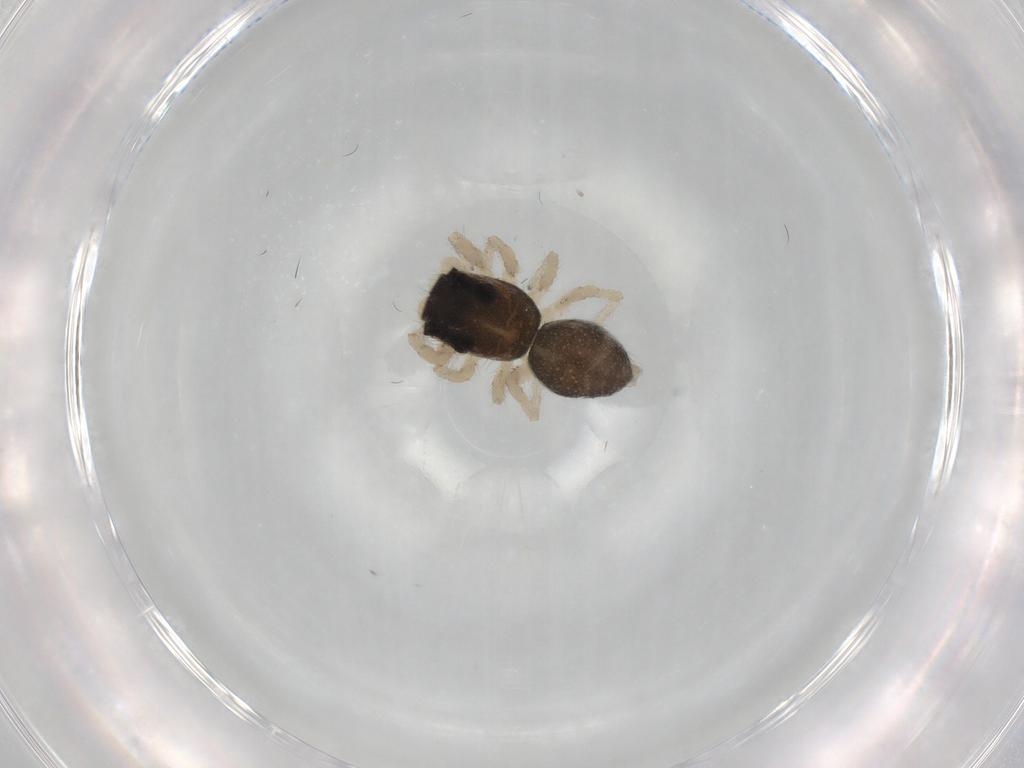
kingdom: Animalia
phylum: Arthropoda
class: Arachnida
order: Araneae
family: Salticidae
